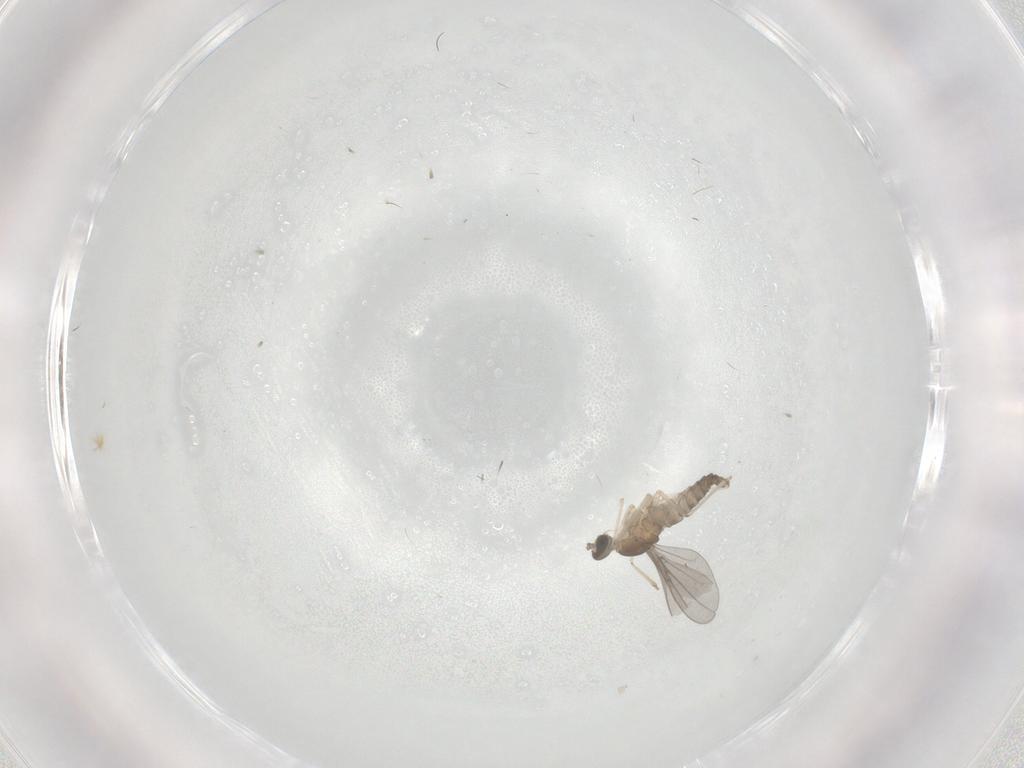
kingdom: Animalia
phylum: Arthropoda
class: Insecta
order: Diptera
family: Cecidomyiidae
